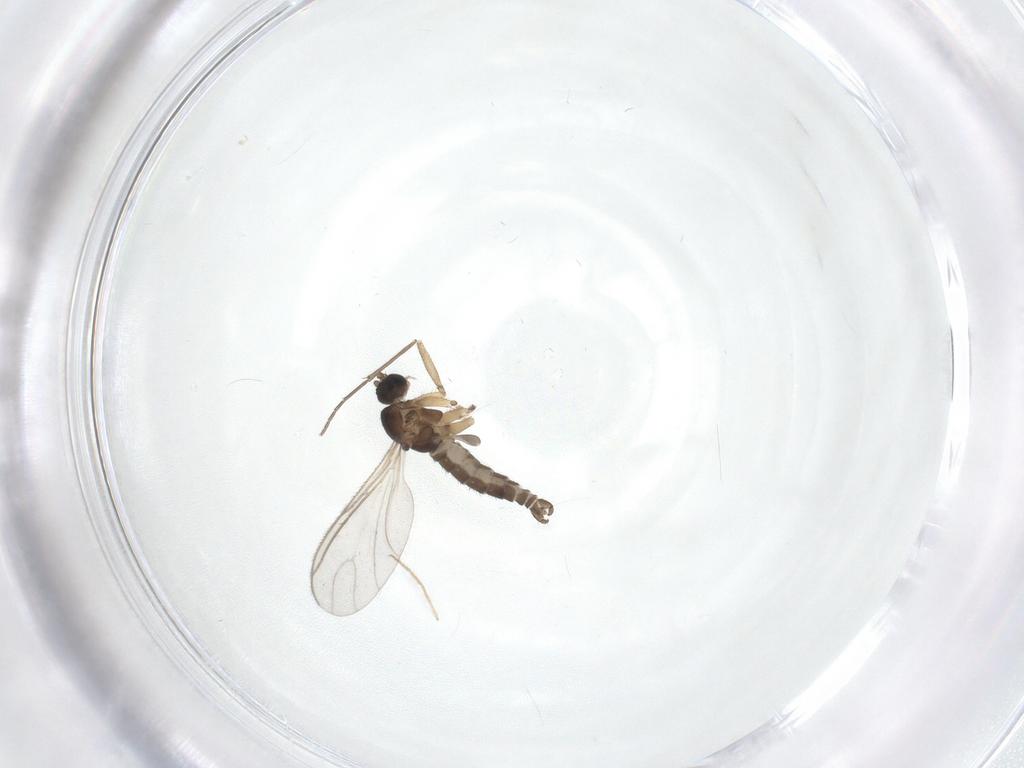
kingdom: Animalia
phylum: Arthropoda
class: Insecta
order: Diptera
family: Sciaridae
